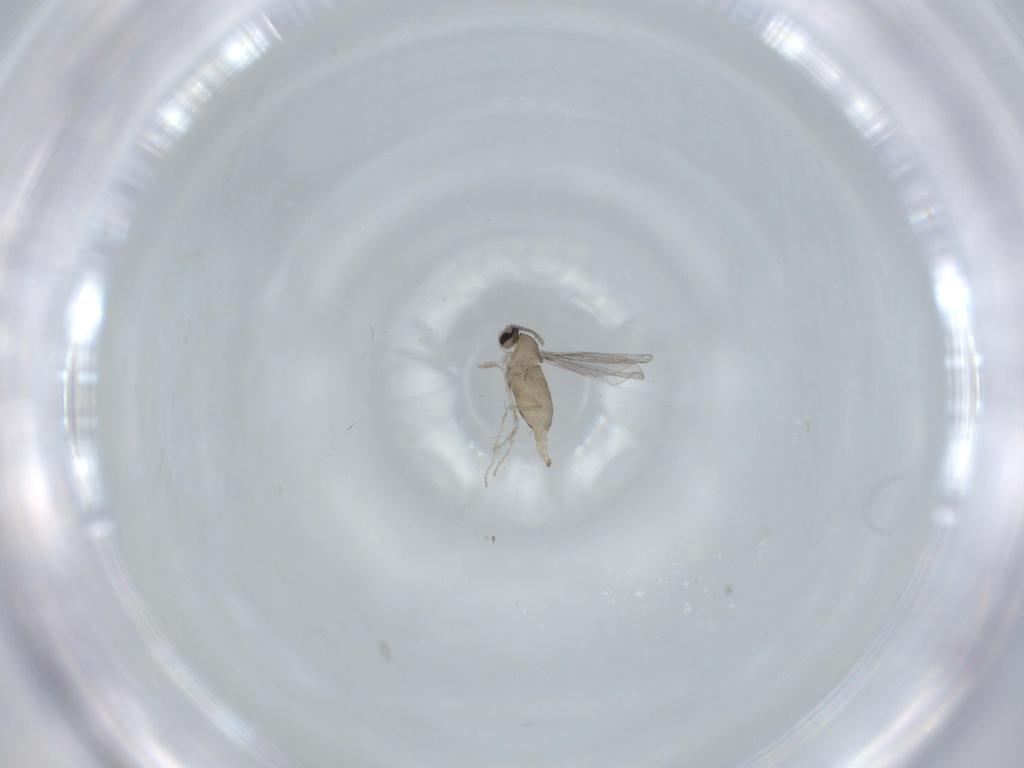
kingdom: Animalia
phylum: Arthropoda
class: Insecta
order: Diptera
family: Cecidomyiidae
